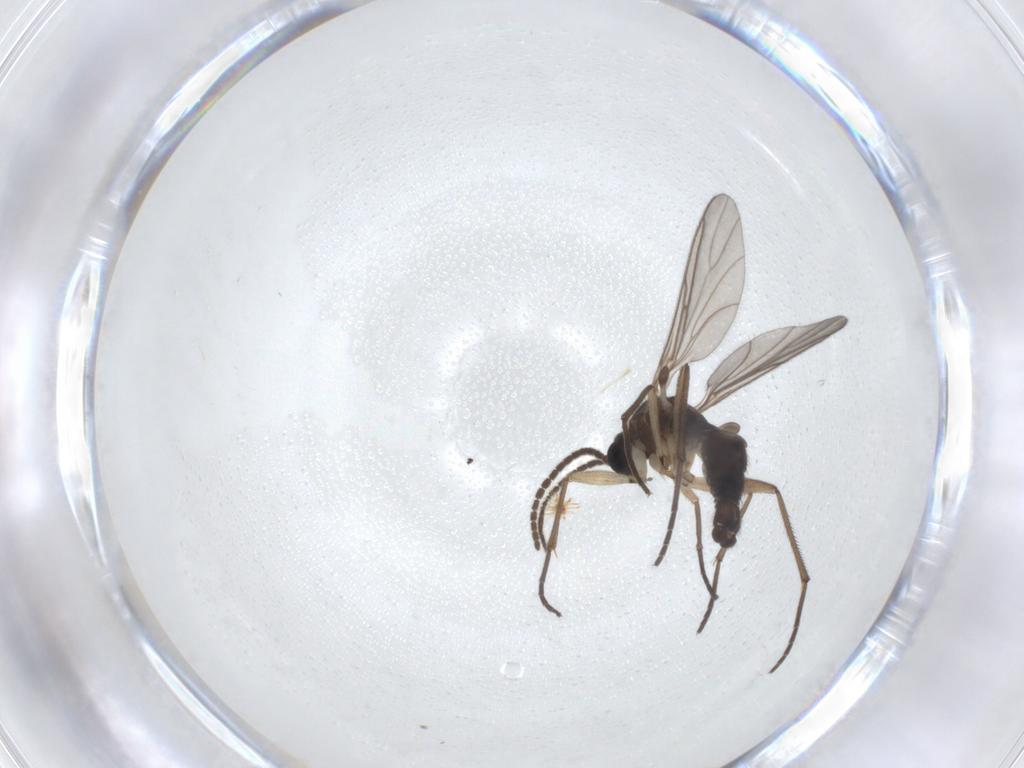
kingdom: Animalia
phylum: Arthropoda
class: Insecta
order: Diptera
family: Sciaridae
